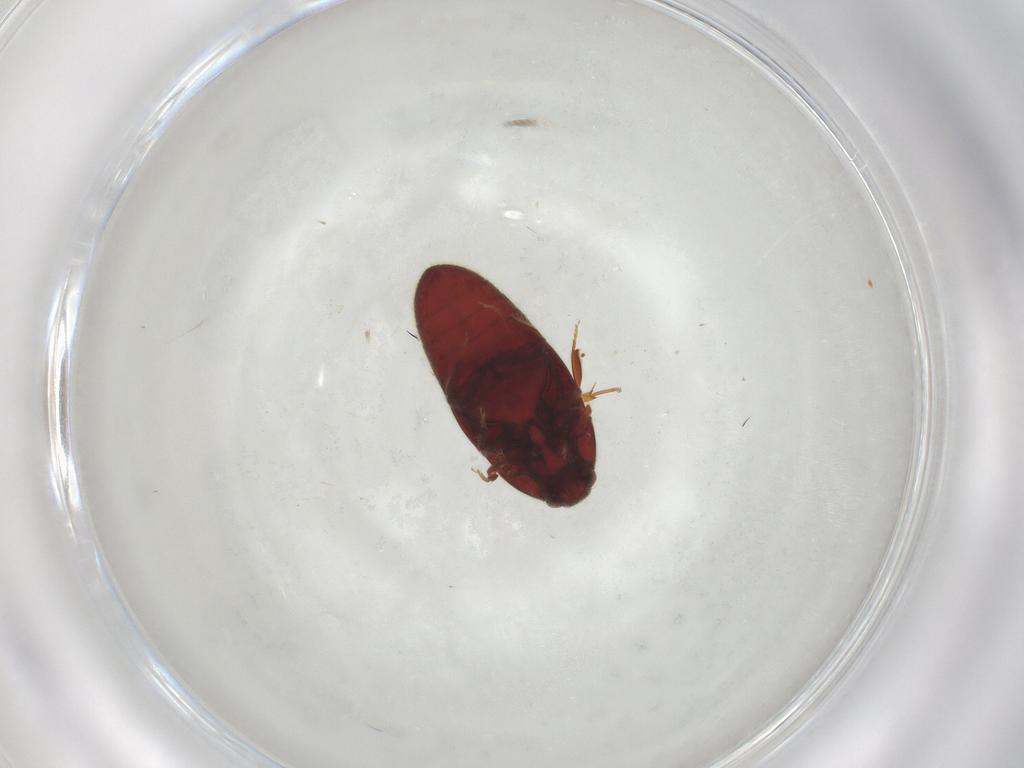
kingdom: Animalia
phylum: Arthropoda
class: Insecta
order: Coleoptera
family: Throscidae
